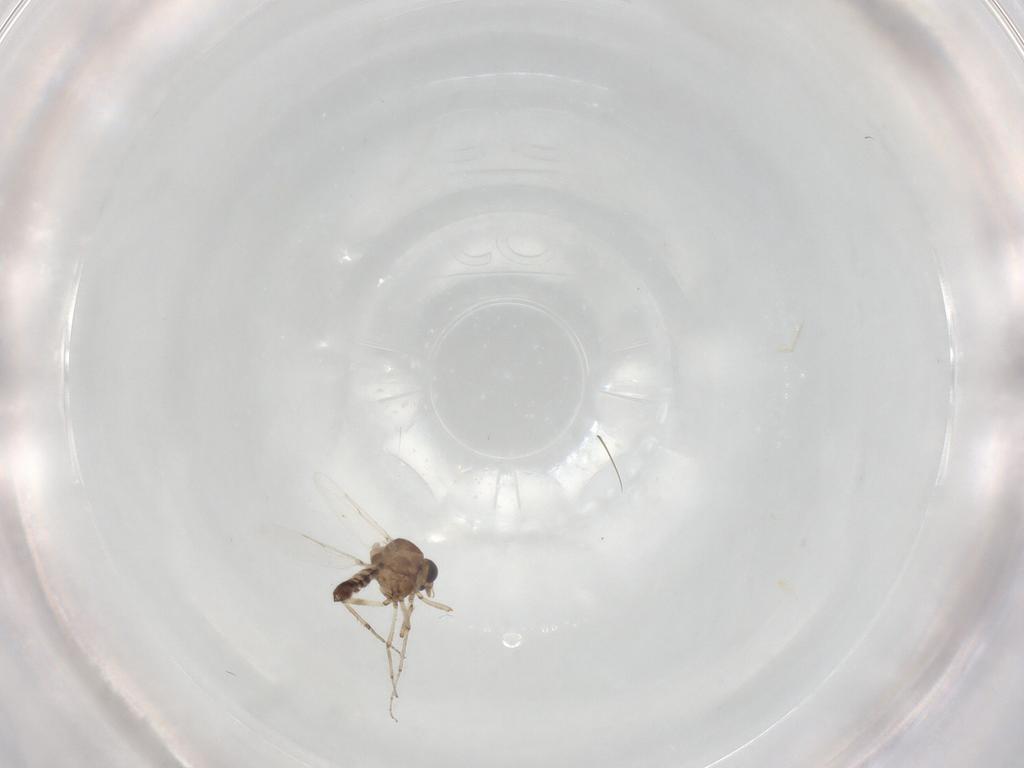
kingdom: Animalia
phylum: Arthropoda
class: Insecta
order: Diptera
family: Ceratopogonidae
